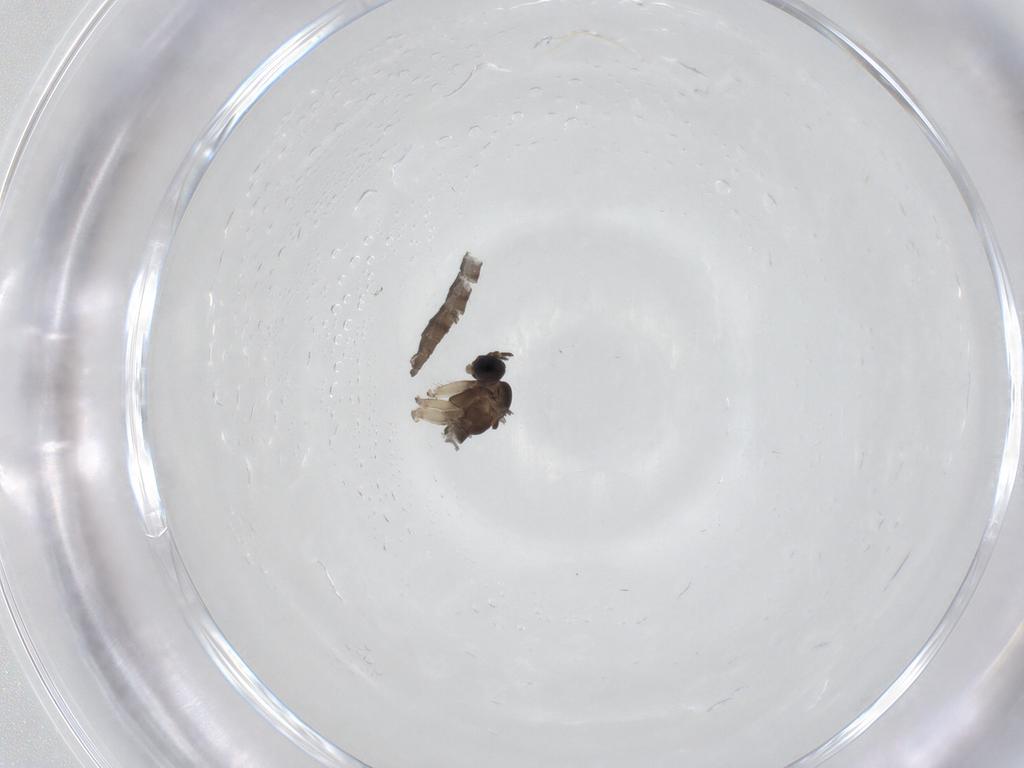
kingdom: Animalia
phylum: Arthropoda
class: Insecta
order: Diptera
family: Sciaridae
